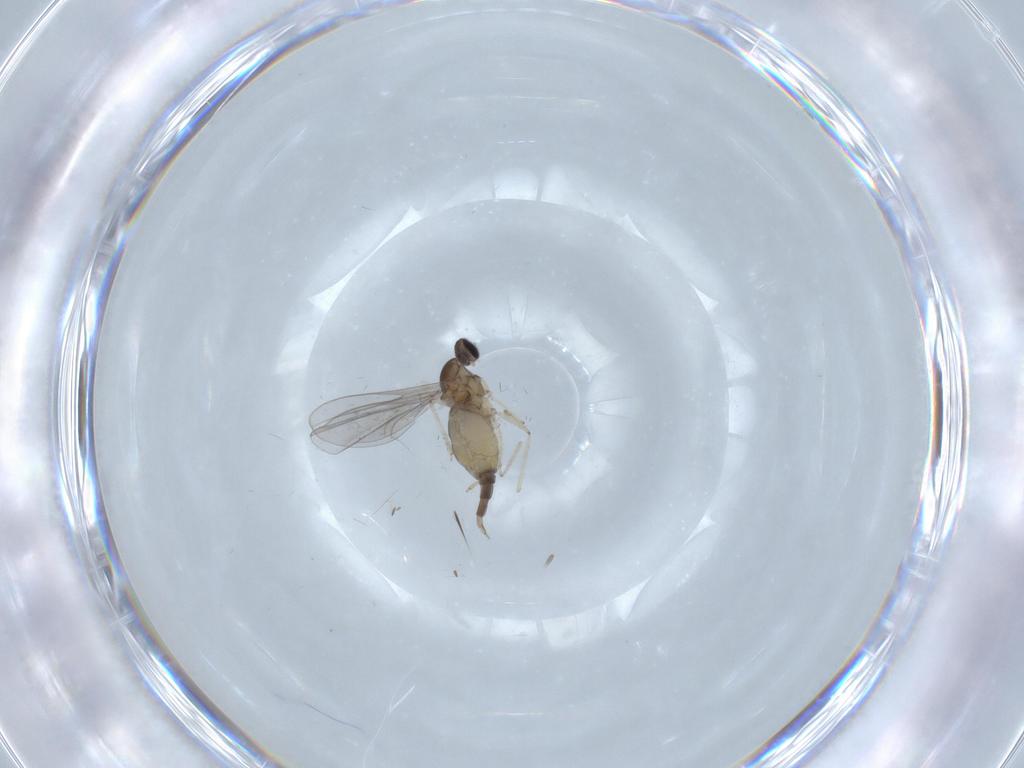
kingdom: Animalia
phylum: Arthropoda
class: Insecta
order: Diptera
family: Cecidomyiidae
